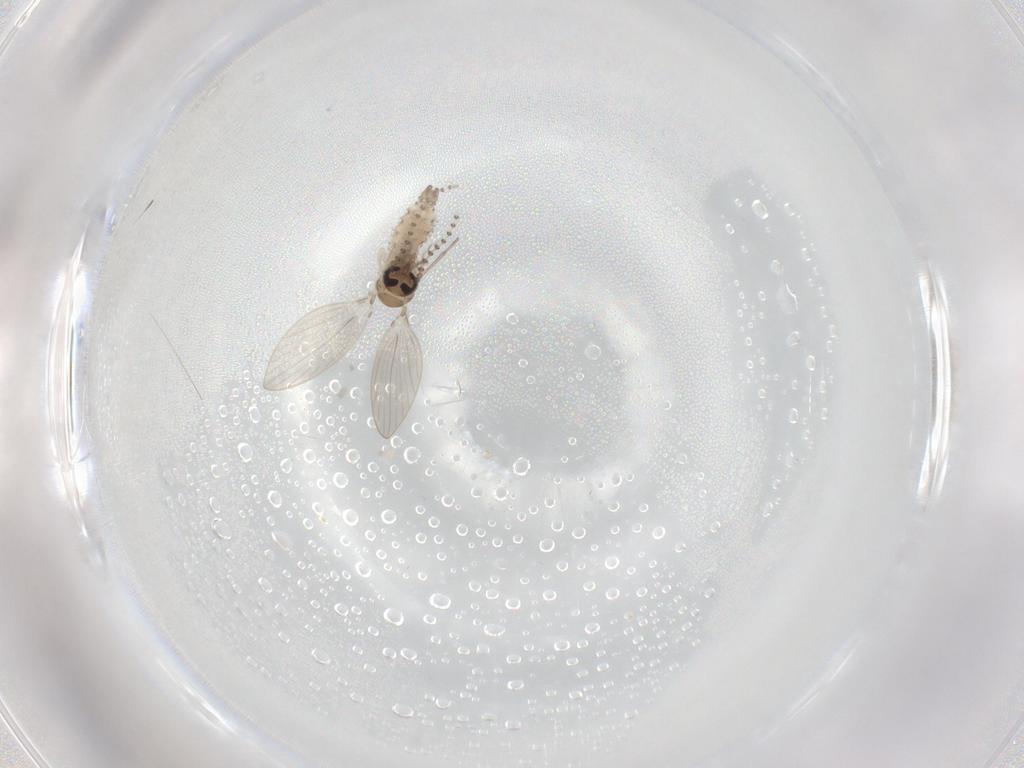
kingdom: Animalia
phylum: Arthropoda
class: Insecta
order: Diptera
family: Psychodidae
